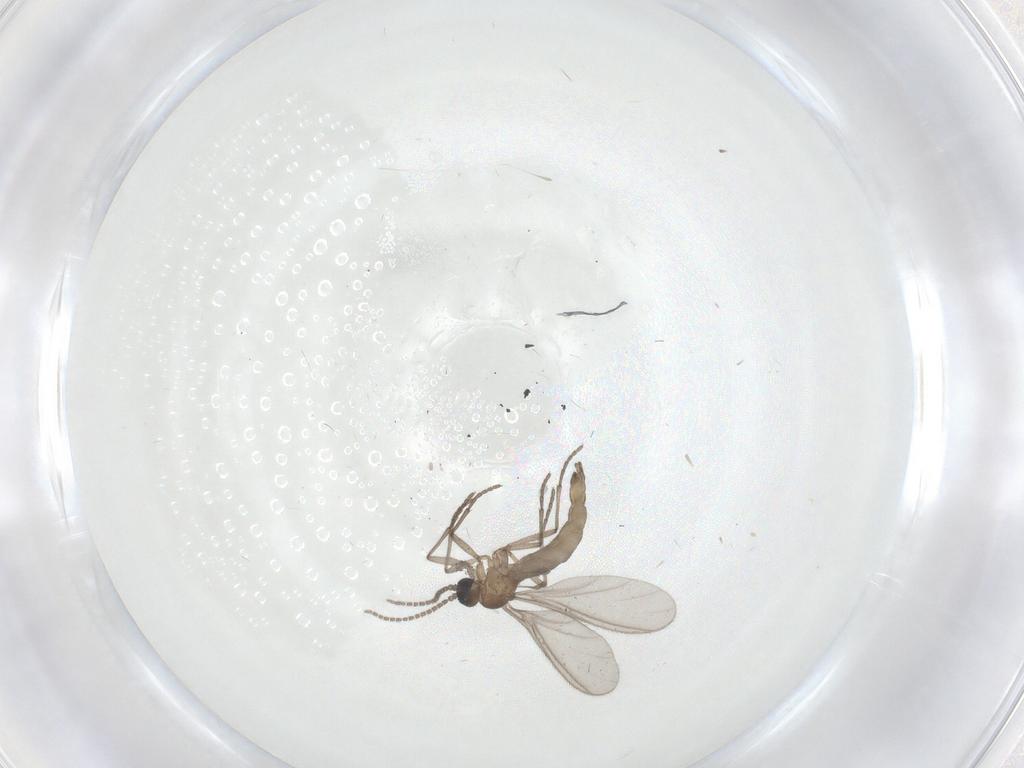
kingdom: Animalia
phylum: Arthropoda
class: Insecta
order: Diptera
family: Sciaridae
